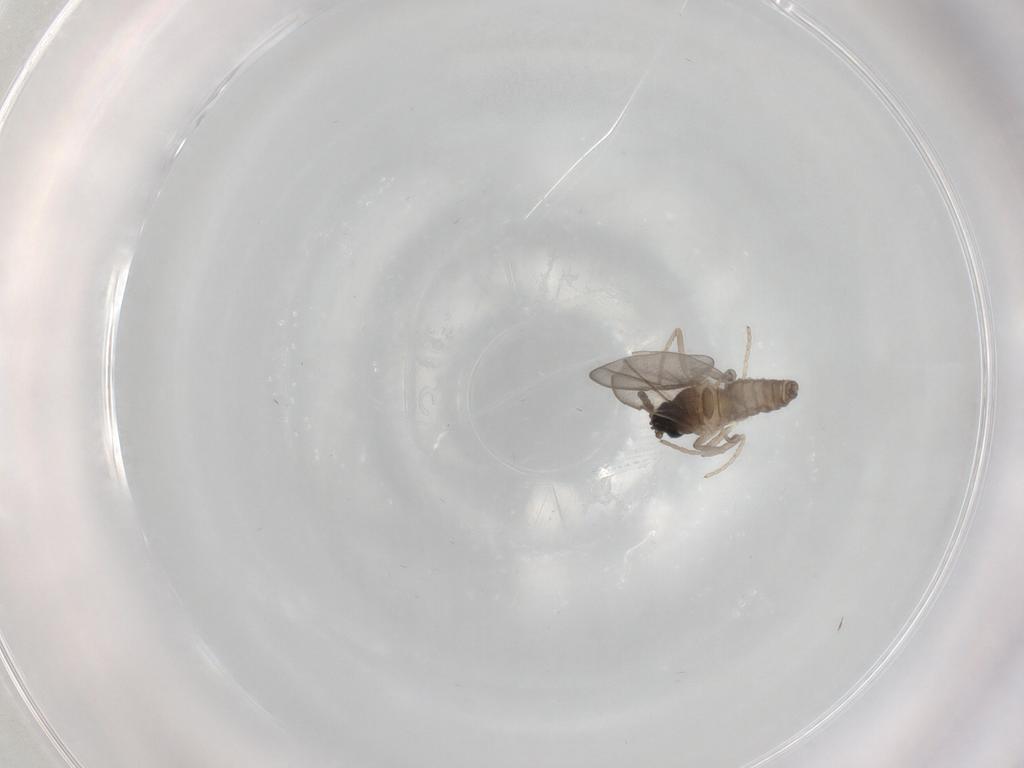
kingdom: Animalia
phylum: Arthropoda
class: Insecta
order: Diptera
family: Cecidomyiidae
